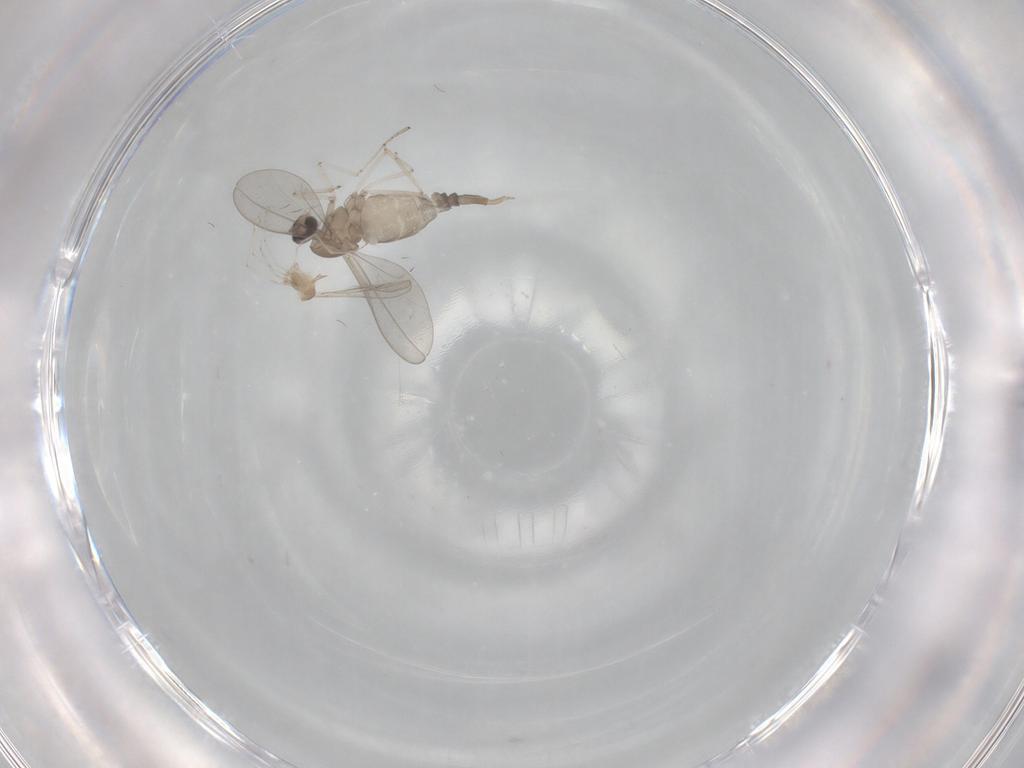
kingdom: Animalia
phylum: Arthropoda
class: Insecta
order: Diptera
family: Cecidomyiidae
